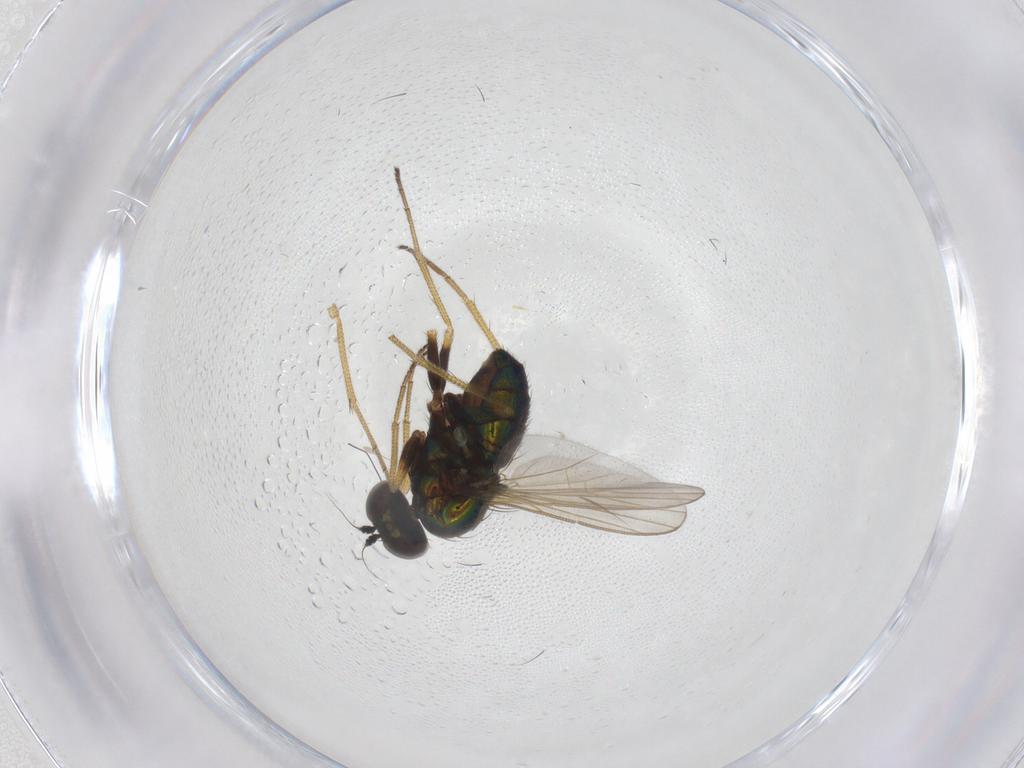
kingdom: Animalia
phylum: Arthropoda
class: Insecta
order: Diptera
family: Dolichopodidae
